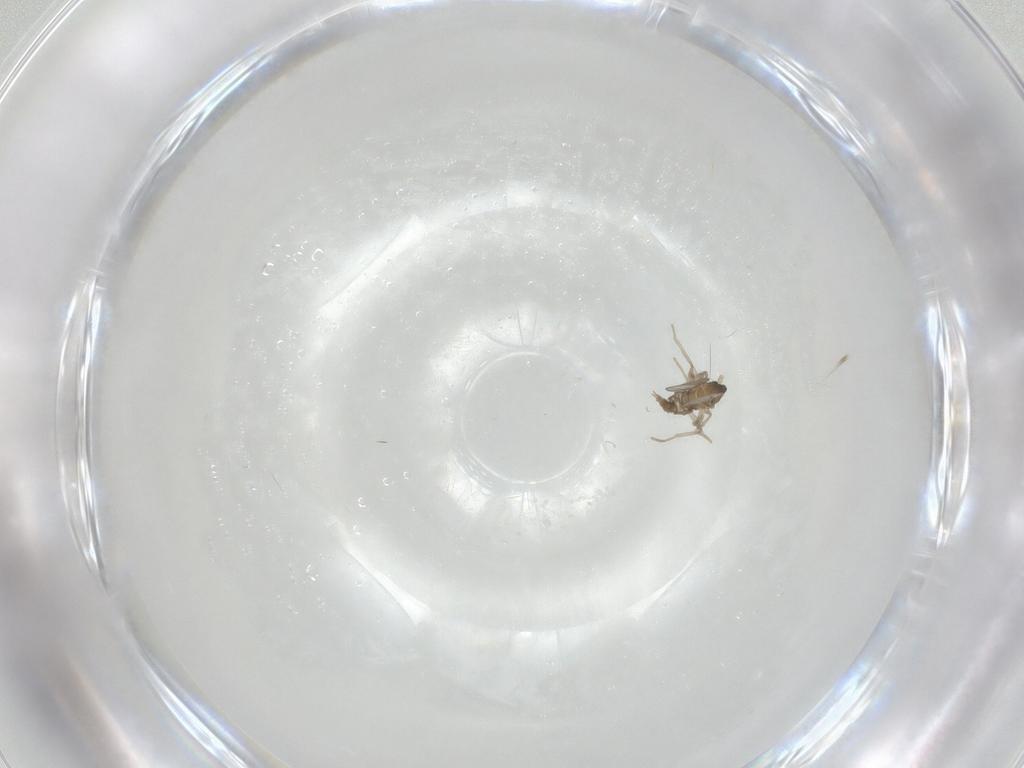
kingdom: Animalia
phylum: Arthropoda
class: Insecta
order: Diptera
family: Cecidomyiidae
